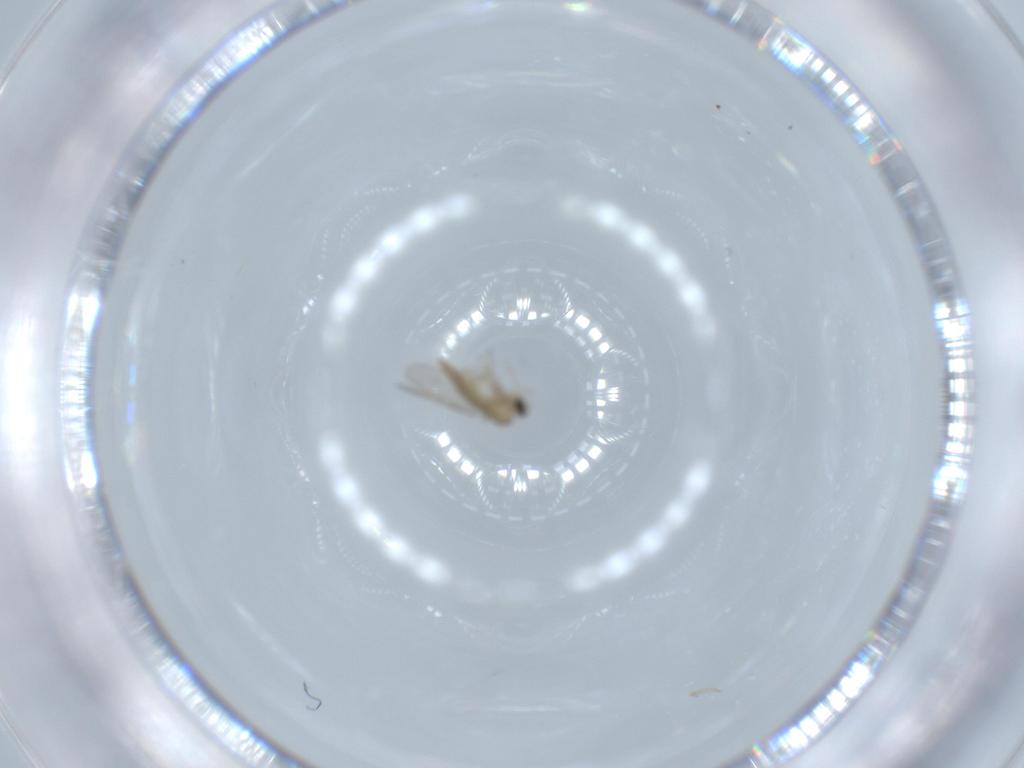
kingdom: Animalia
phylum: Arthropoda
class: Insecta
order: Diptera
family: Cecidomyiidae
